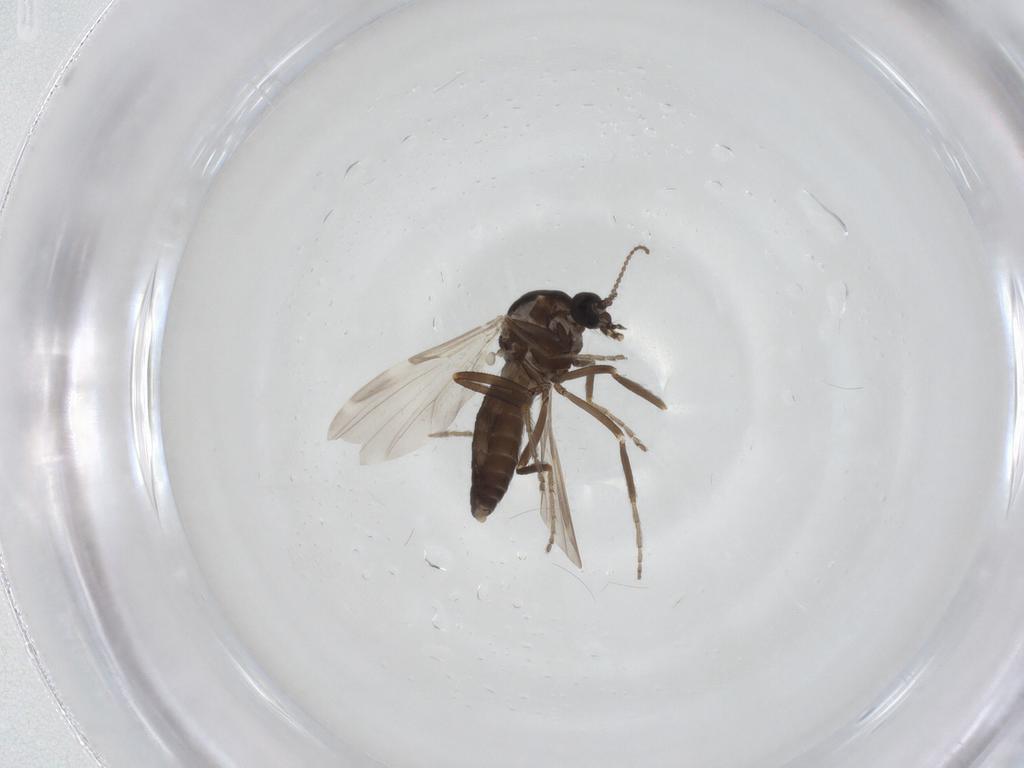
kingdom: Animalia
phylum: Arthropoda
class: Insecta
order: Diptera
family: Ceratopogonidae
